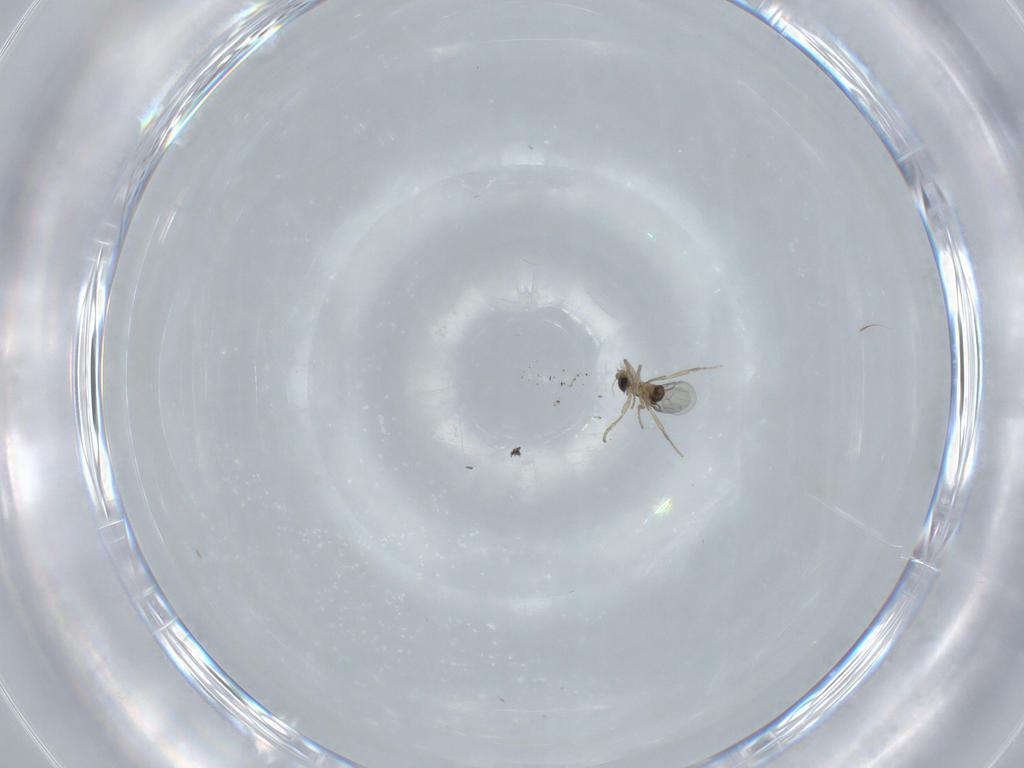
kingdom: Animalia
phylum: Arthropoda
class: Insecta
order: Diptera
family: Phoridae
